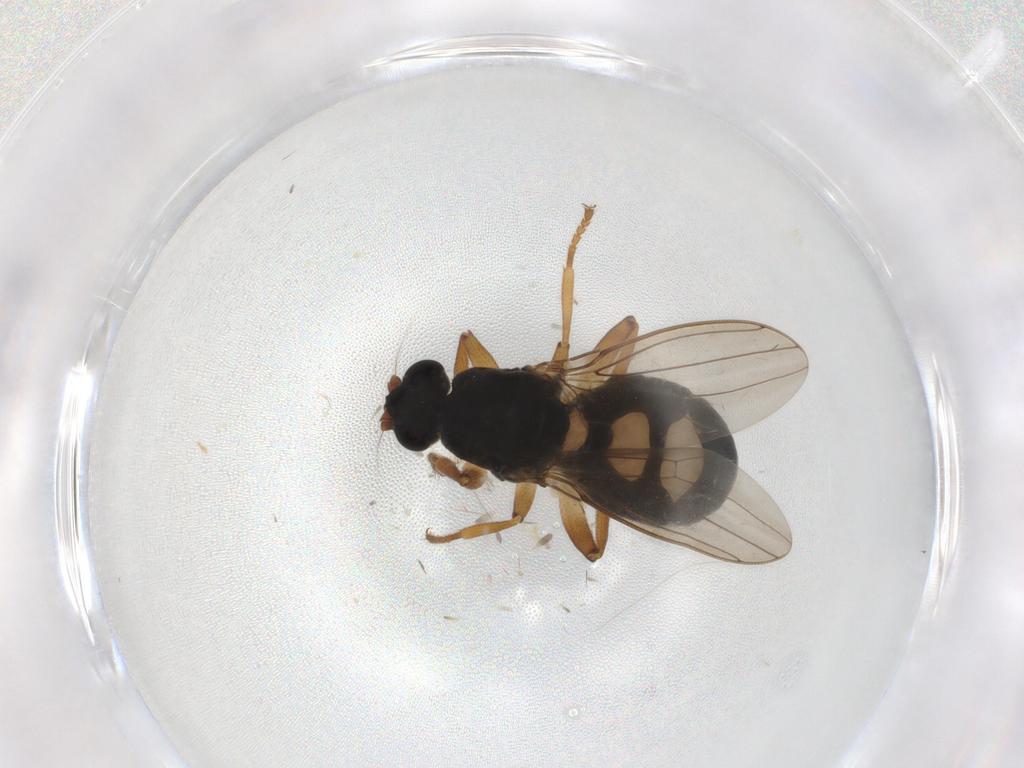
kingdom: Animalia
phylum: Arthropoda
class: Insecta
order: Diptera
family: Sphaeroceridae
